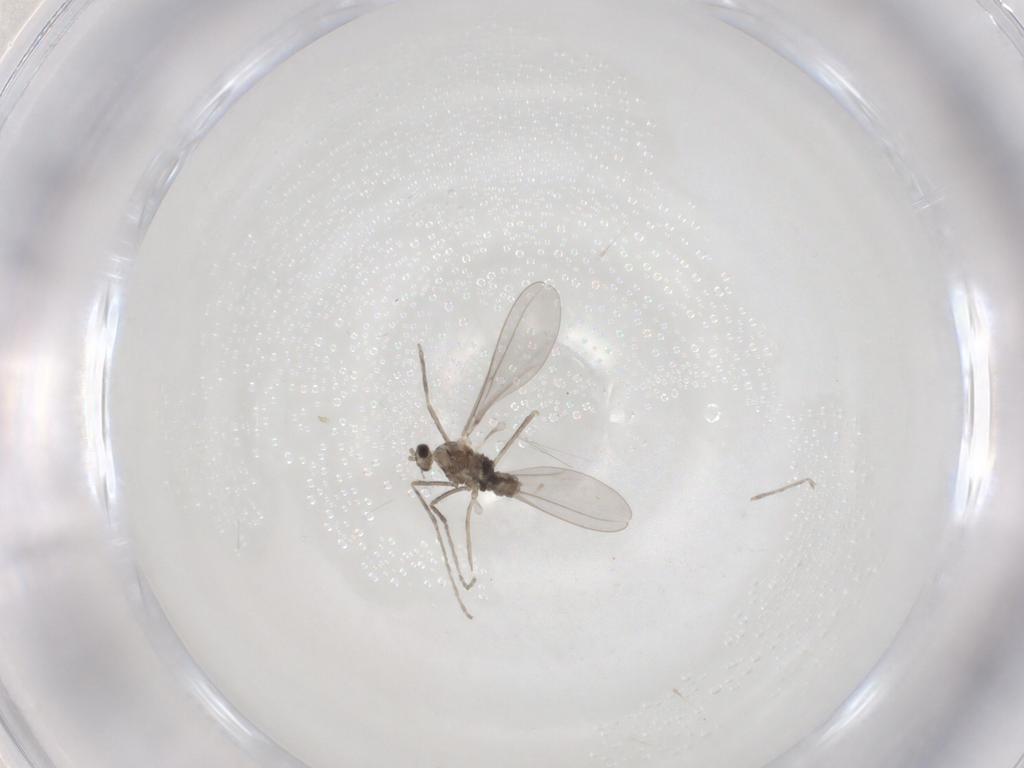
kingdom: Animalia
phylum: Arthropoda
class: Insecta
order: Diptera
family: Cecidomyiidae
